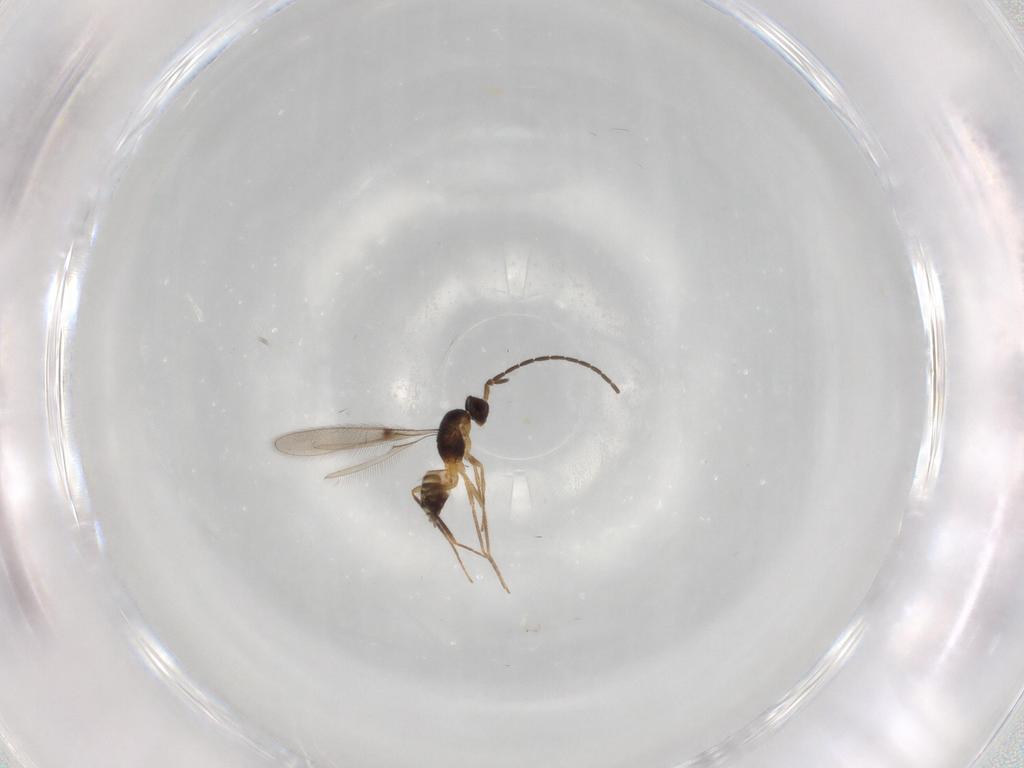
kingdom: Animalia
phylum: Arthropoda
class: Insecta
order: Hymenoptera
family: Mymaridae
